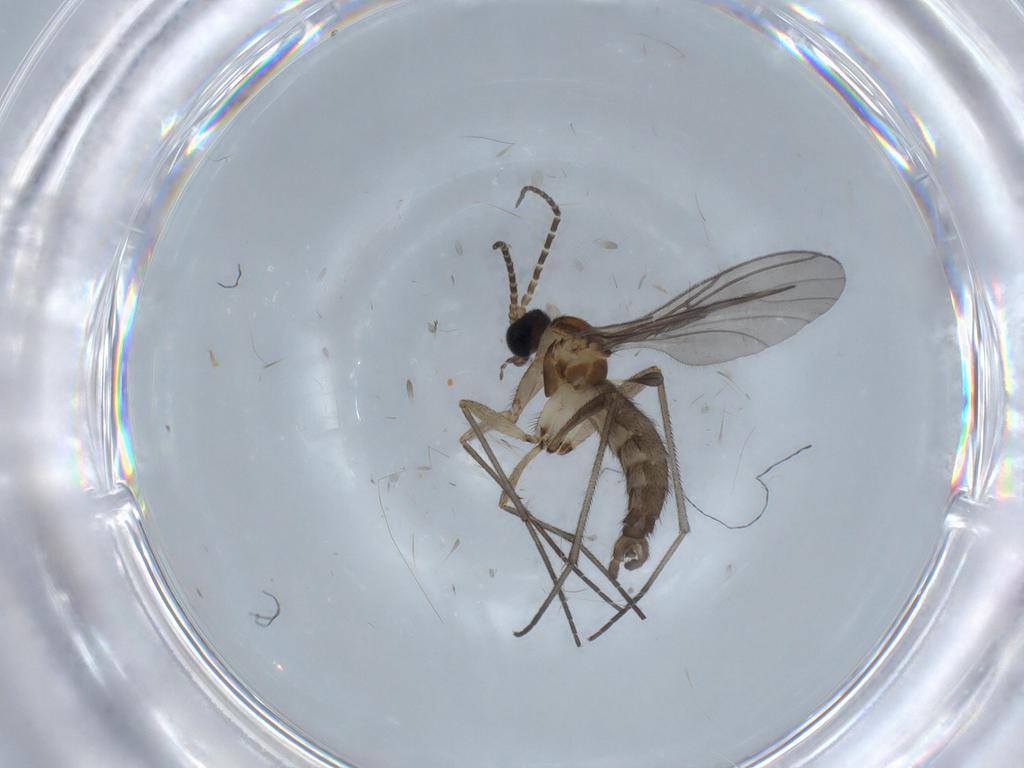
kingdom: Animalia
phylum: Arthropoda
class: Insecta
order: Diptera
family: Sciaridae
